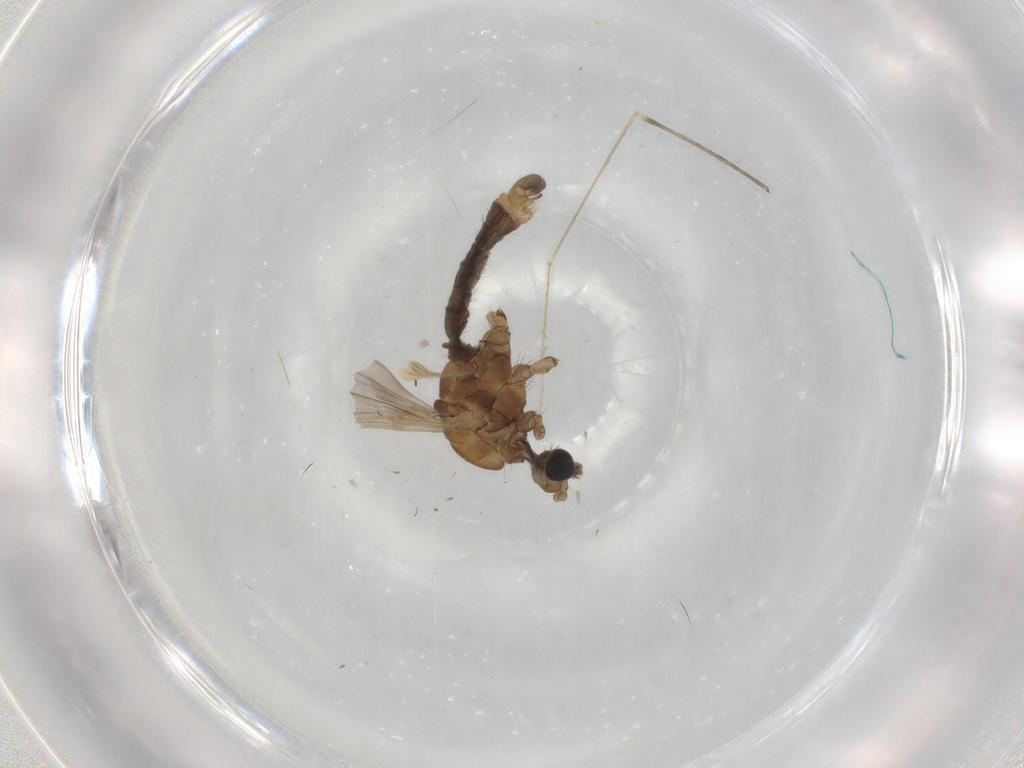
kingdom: Animalia
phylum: Arthropoda
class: Insecta
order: Diptera
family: Limoniidae
